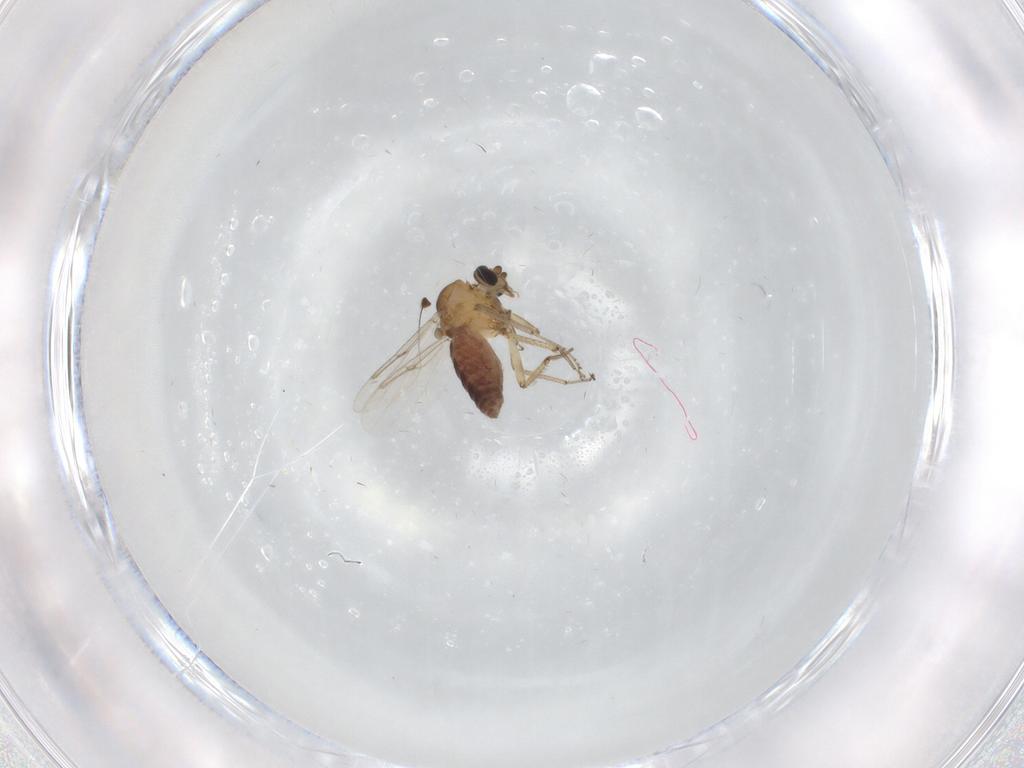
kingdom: Animalia
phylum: Arthropoda
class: Insecta
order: Diptera
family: Ceratopogonidae
